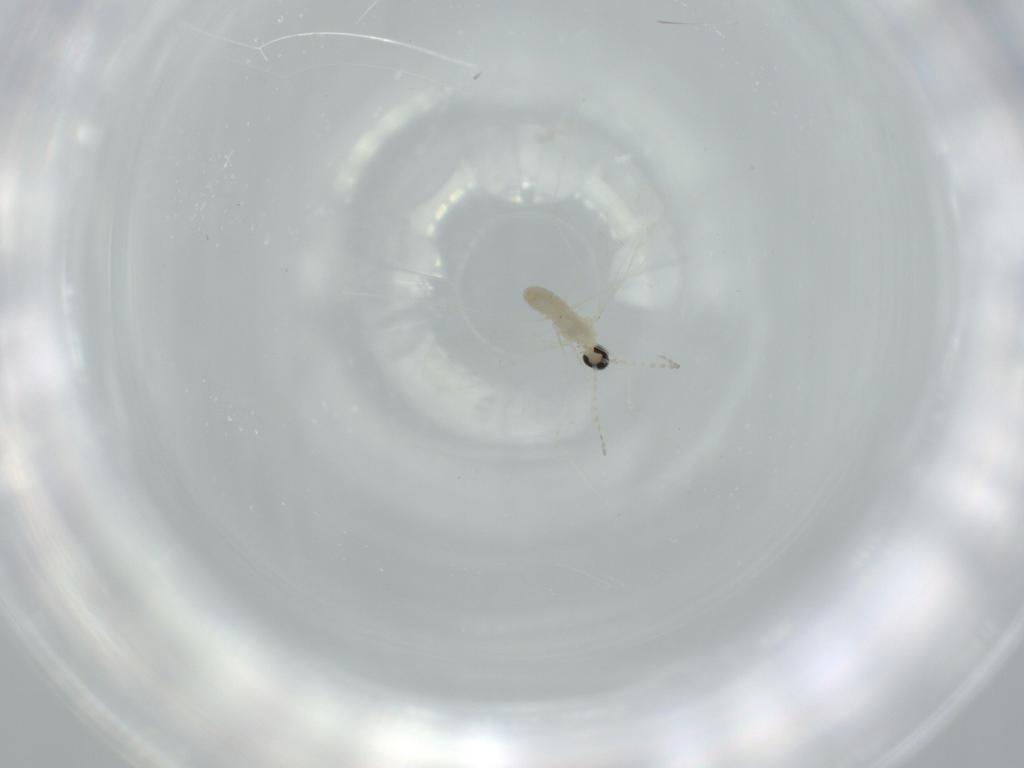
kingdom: Animalia
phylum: Arthropoda
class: Insecta
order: Diptera
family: Cecidomyiidae
